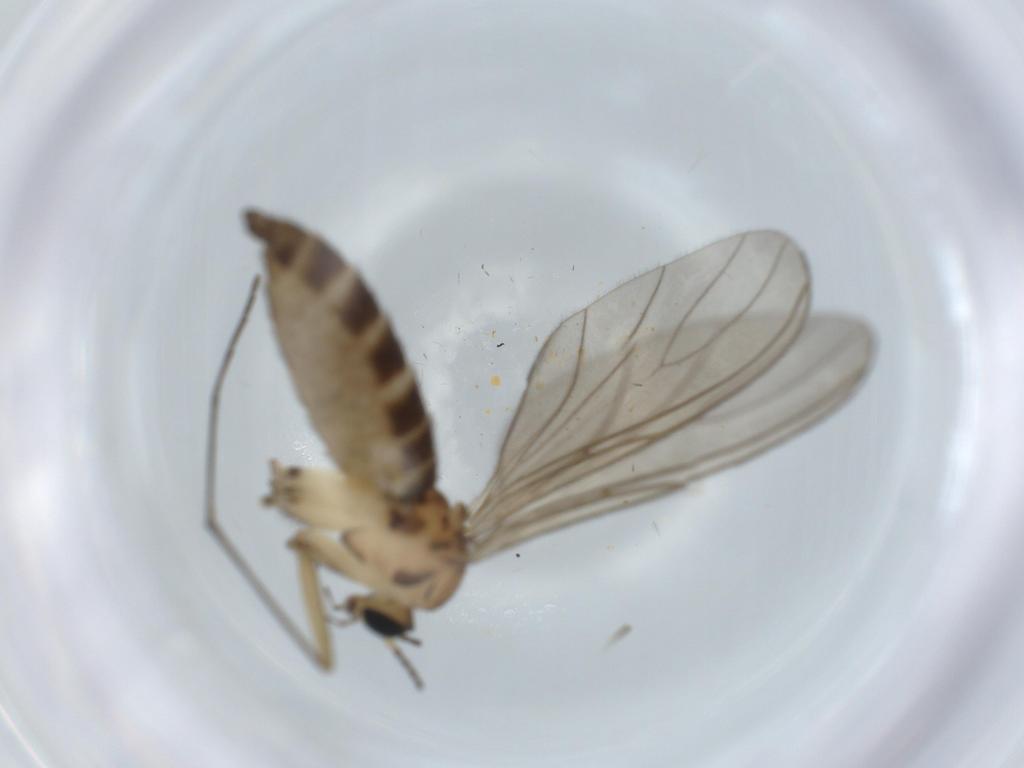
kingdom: Animalia
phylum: Arthropoda
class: Insecta
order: Diptera
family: Sciaridae
